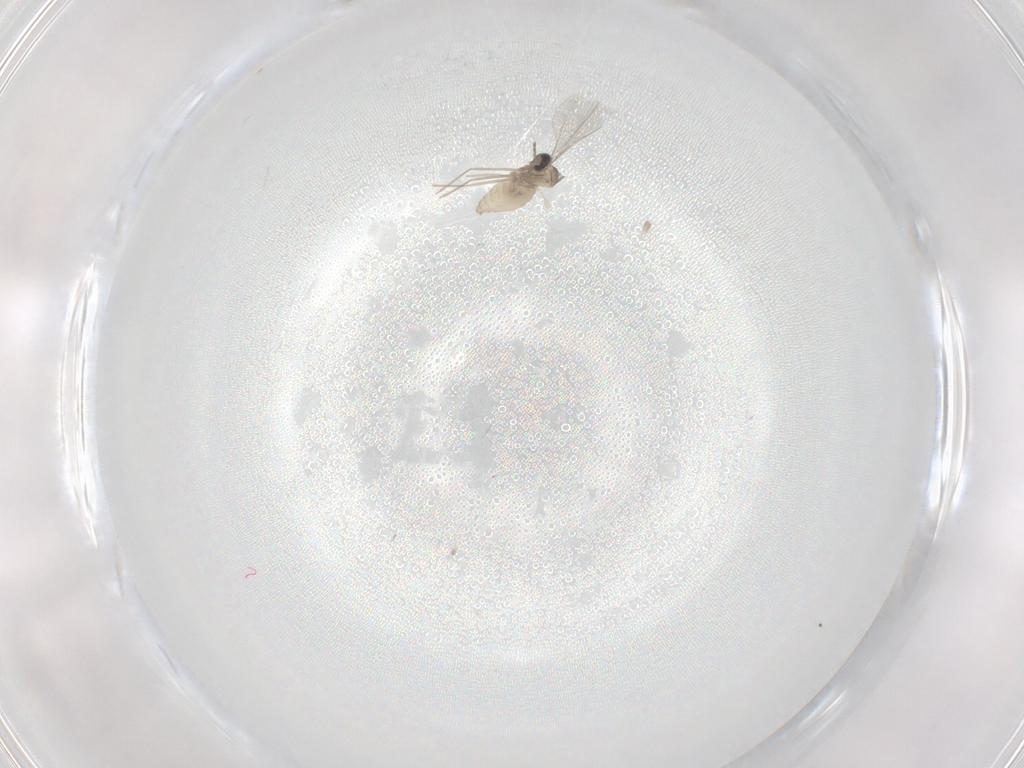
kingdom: Animalia
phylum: Arthropoda
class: Insecta
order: Diptera
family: Cecidomyiidae
